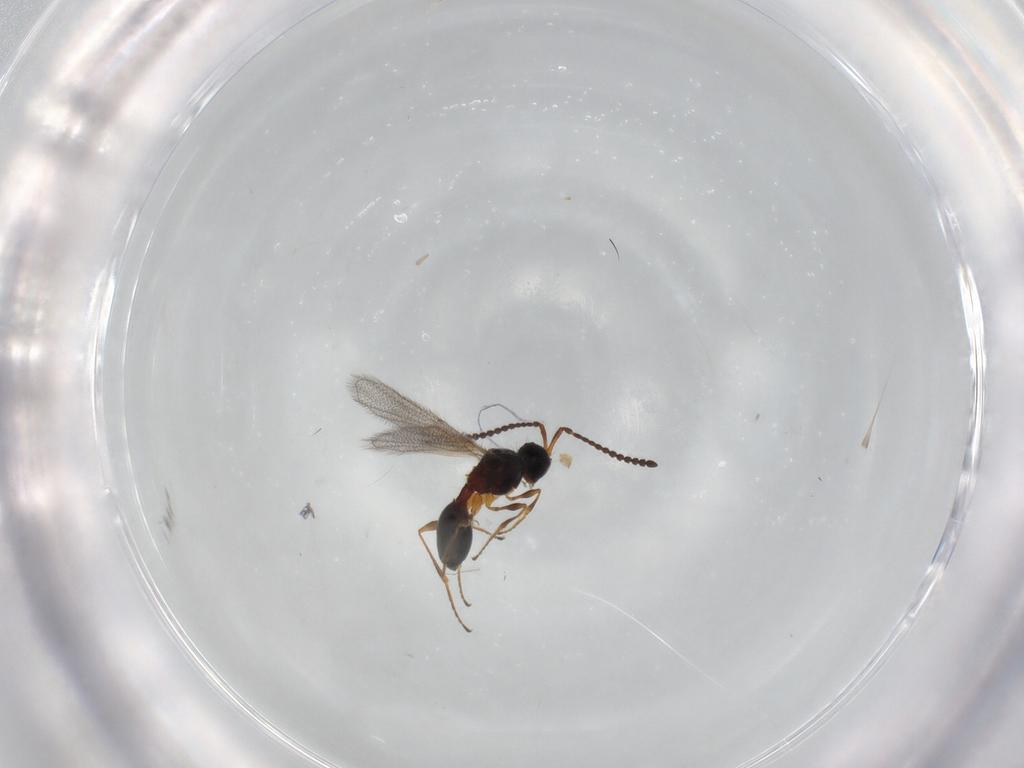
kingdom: Animalia
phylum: Arthropoda
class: Insecta
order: Hymenoptera
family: Diapriidae
